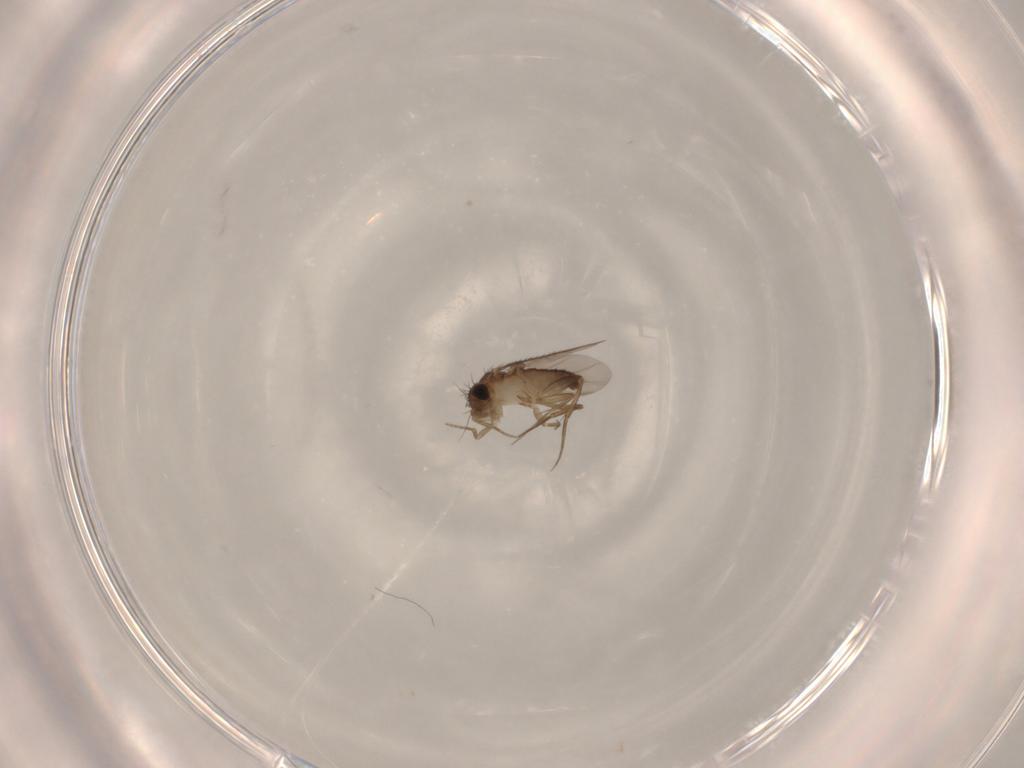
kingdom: Animalia
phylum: Arthropoda
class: Insecta
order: Diptera
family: Phoridae
